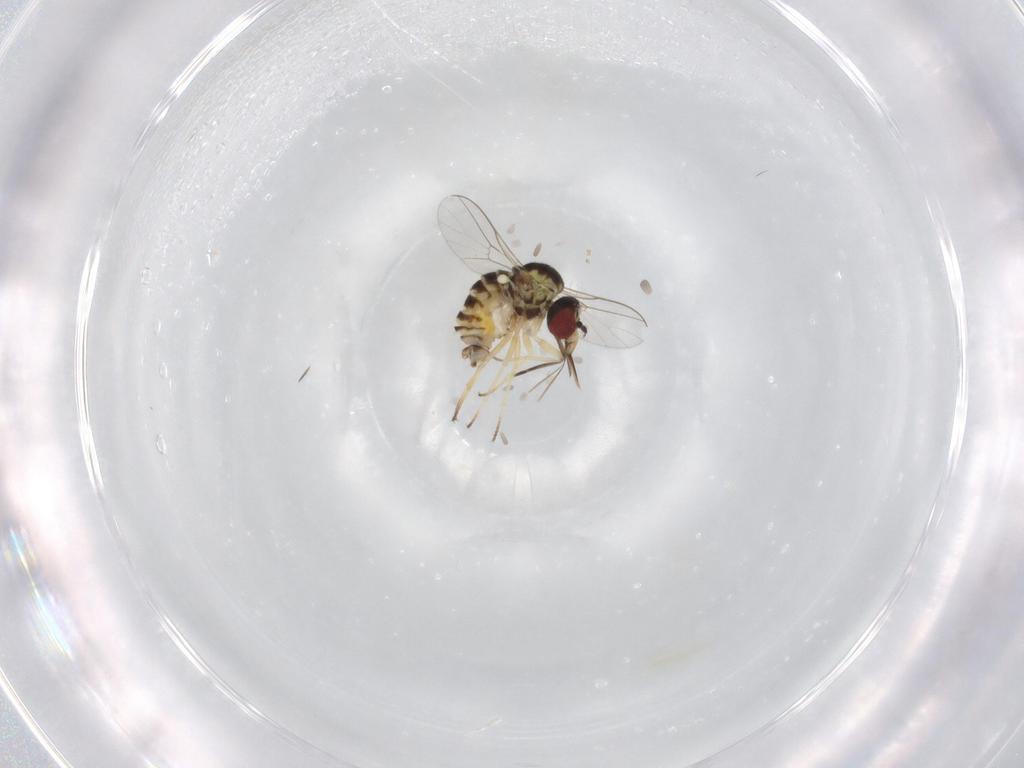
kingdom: Animalia
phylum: Arthropoda
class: Insecta
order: Diptera
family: Bombyliidae
